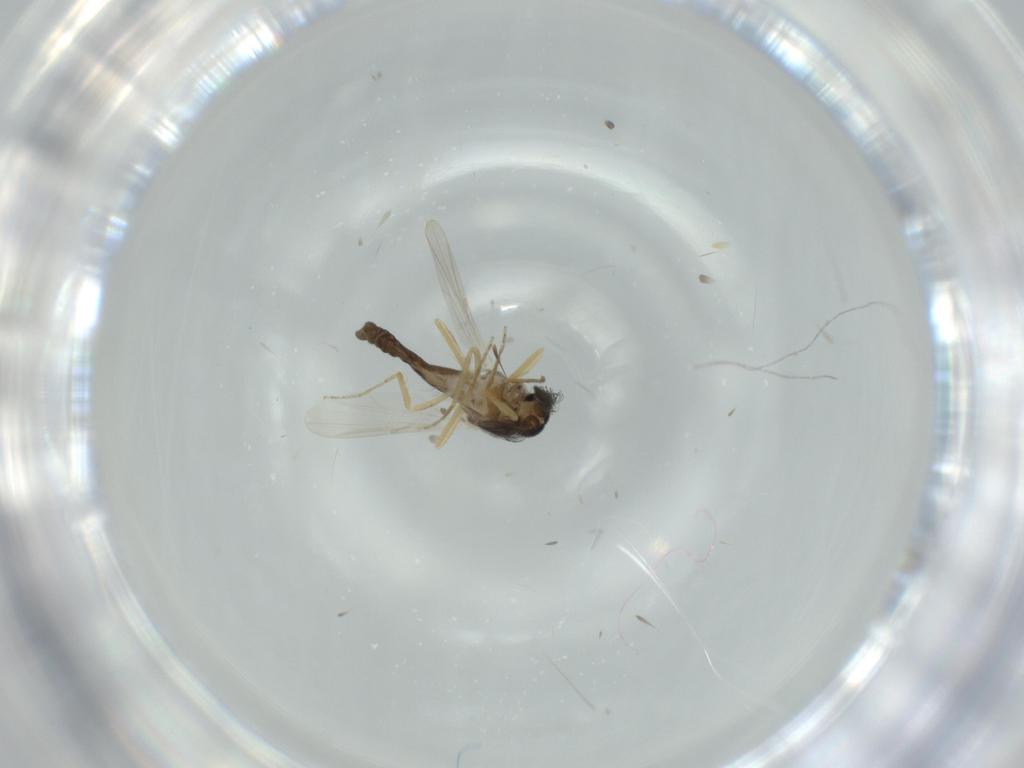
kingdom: Animalia
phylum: Arthropoda
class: Insecta
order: Diptera
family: Ceratopogonidae
